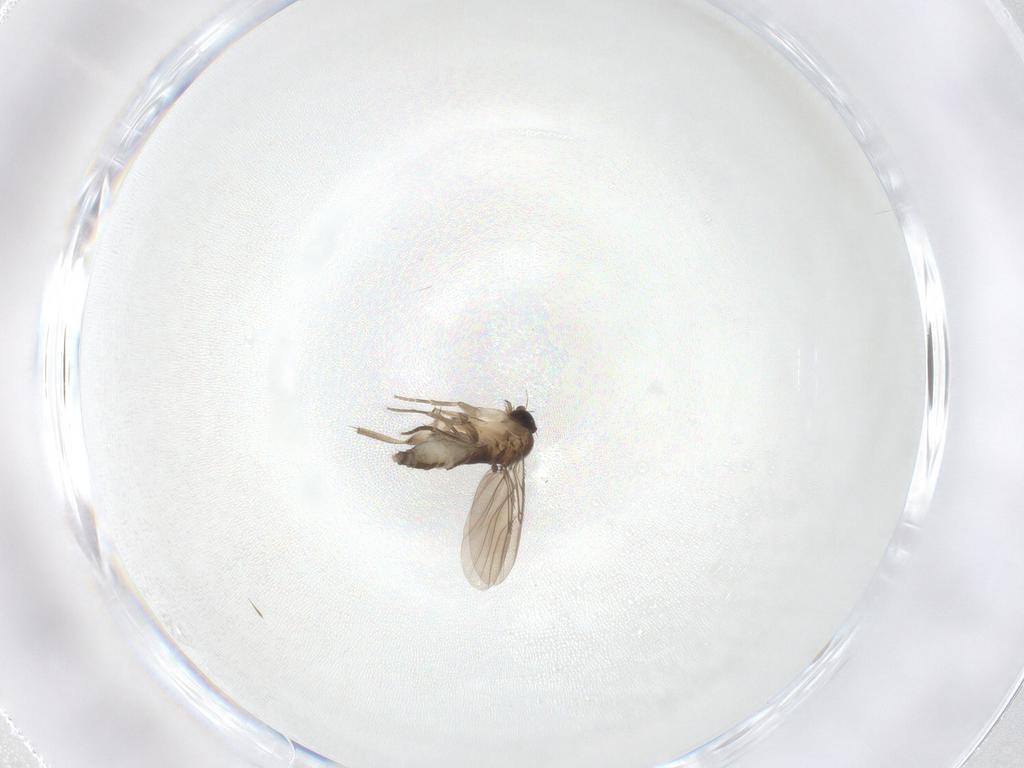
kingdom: Animalia
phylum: Arthropoda
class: Insecta
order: Diptera
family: Phoridae
